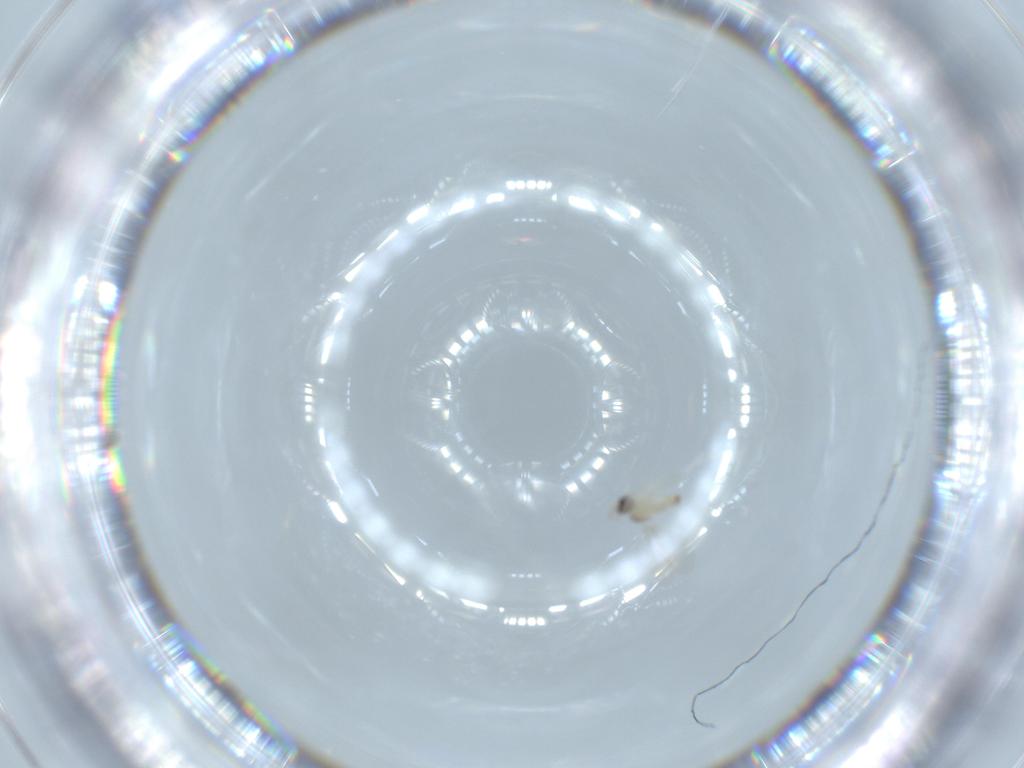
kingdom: Animalia
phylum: Arthropoda
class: Insecta
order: Diptera
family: Cecidomyiidae
